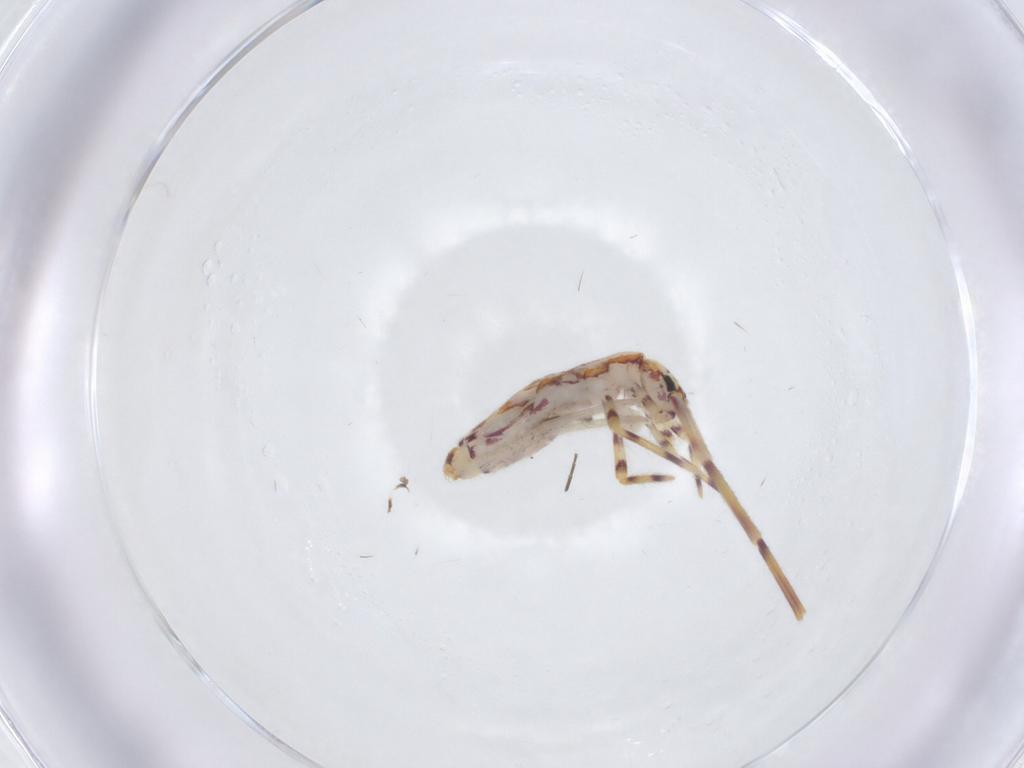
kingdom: Animalia
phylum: Arthropoda
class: Collembola
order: Entomobryomorpha
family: Entomobryidae
